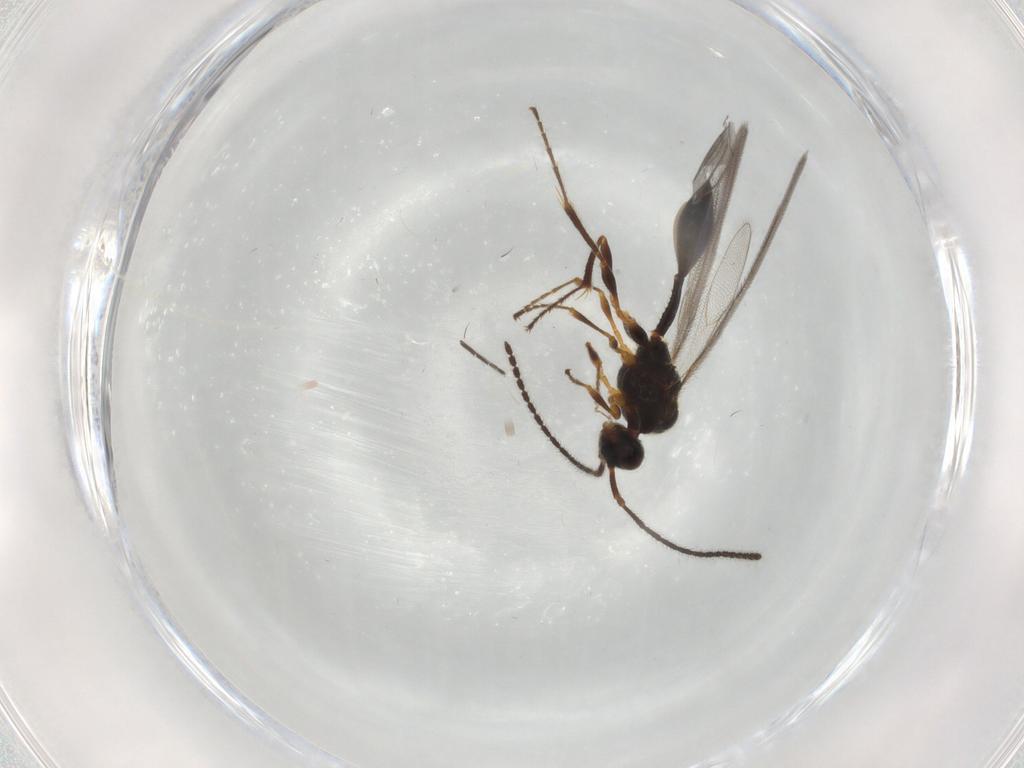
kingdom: Animalia
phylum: Arthropoda
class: Insecta
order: Hymenoptera
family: Diapriidae
